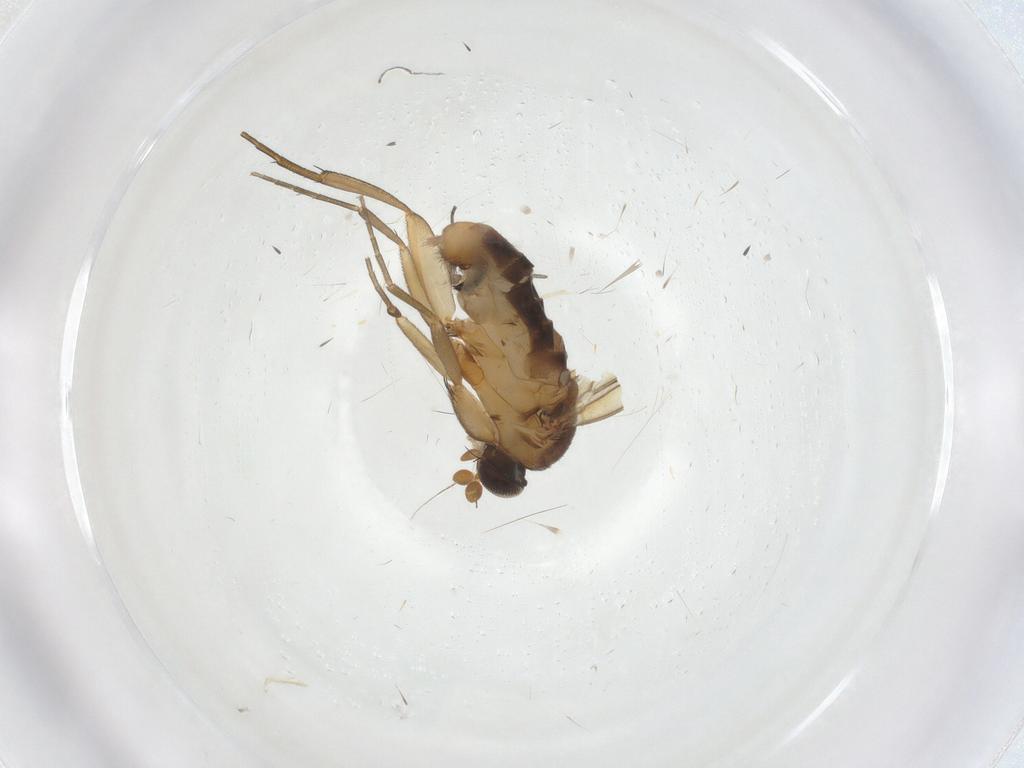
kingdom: Animalia
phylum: Arthropoda
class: Insecta
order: Diptera
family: Phoridae
